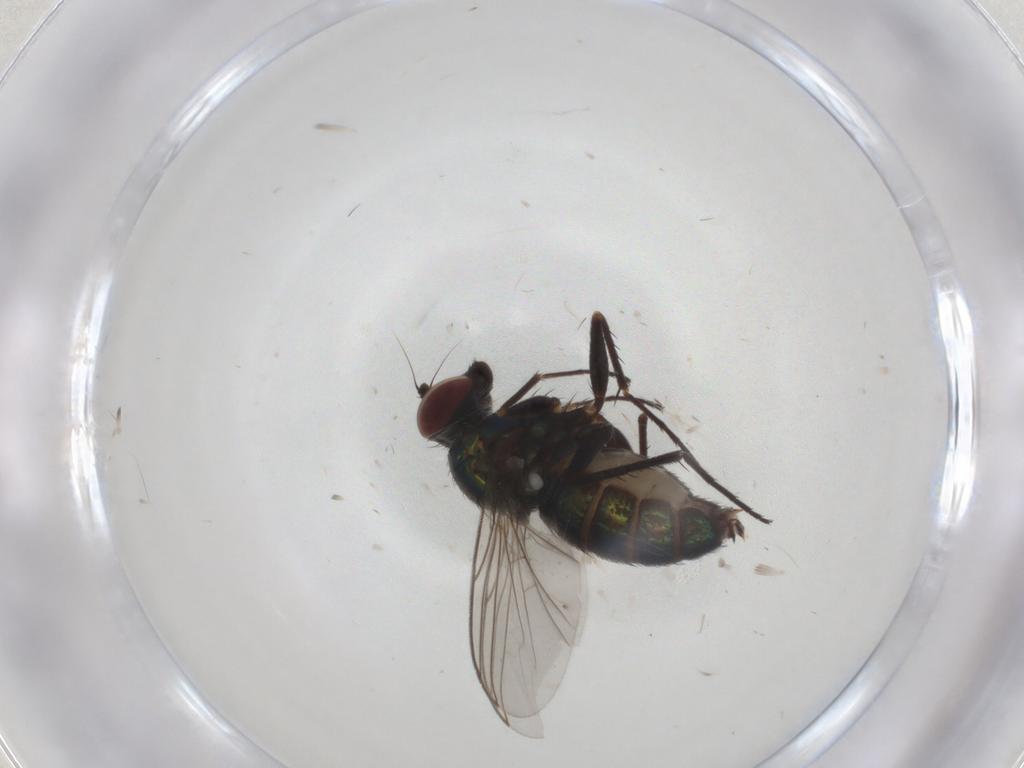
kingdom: Animalia
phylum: Arthropoda
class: Insecta
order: Diptera
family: Dolichopodidae
